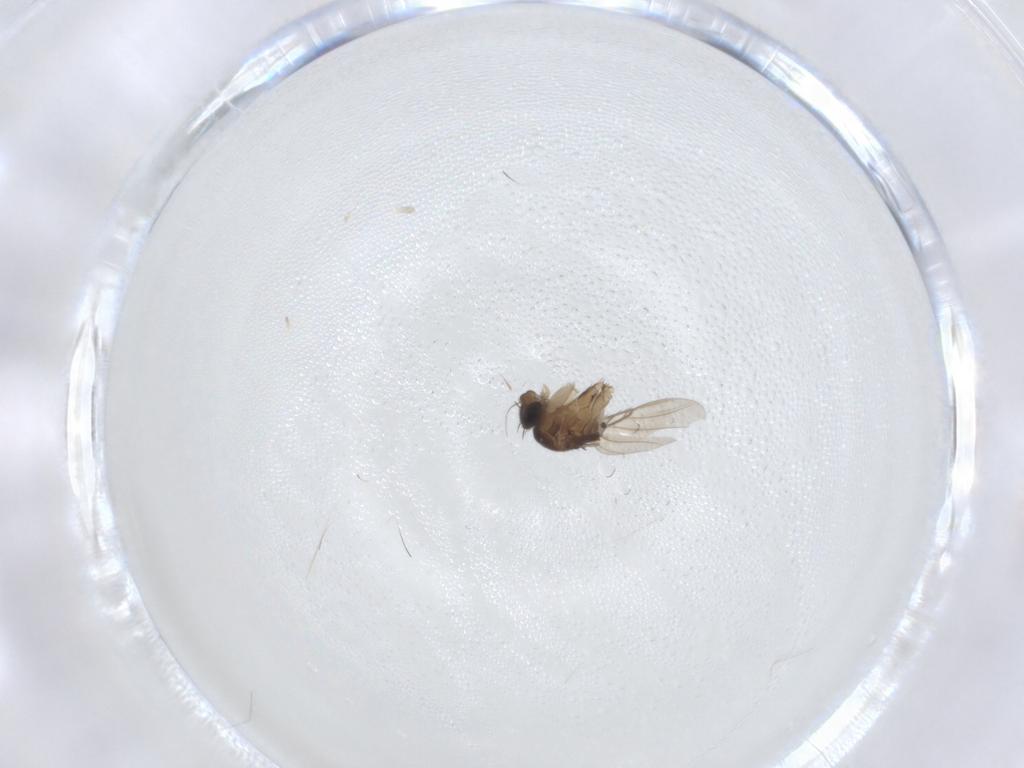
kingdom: Animalia
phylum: Arthropoda
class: Insecta
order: Diptera
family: Phoridae
